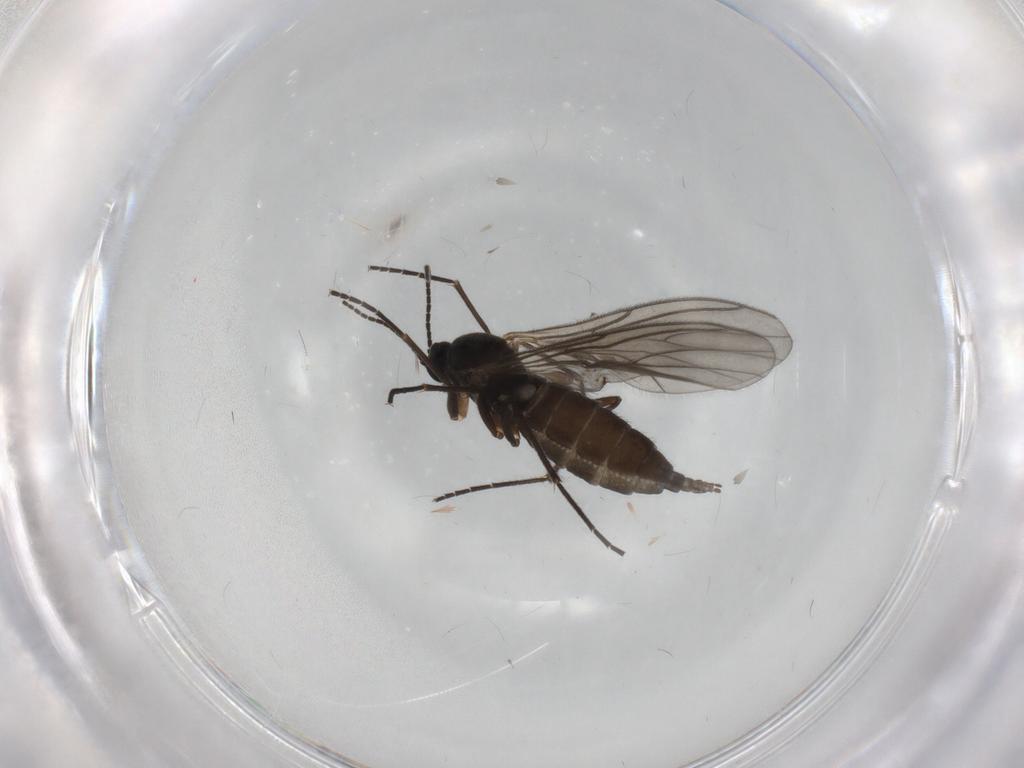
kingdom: Animalia
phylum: Arthropoda
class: Insecta
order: Diptera
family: Sciaridae
